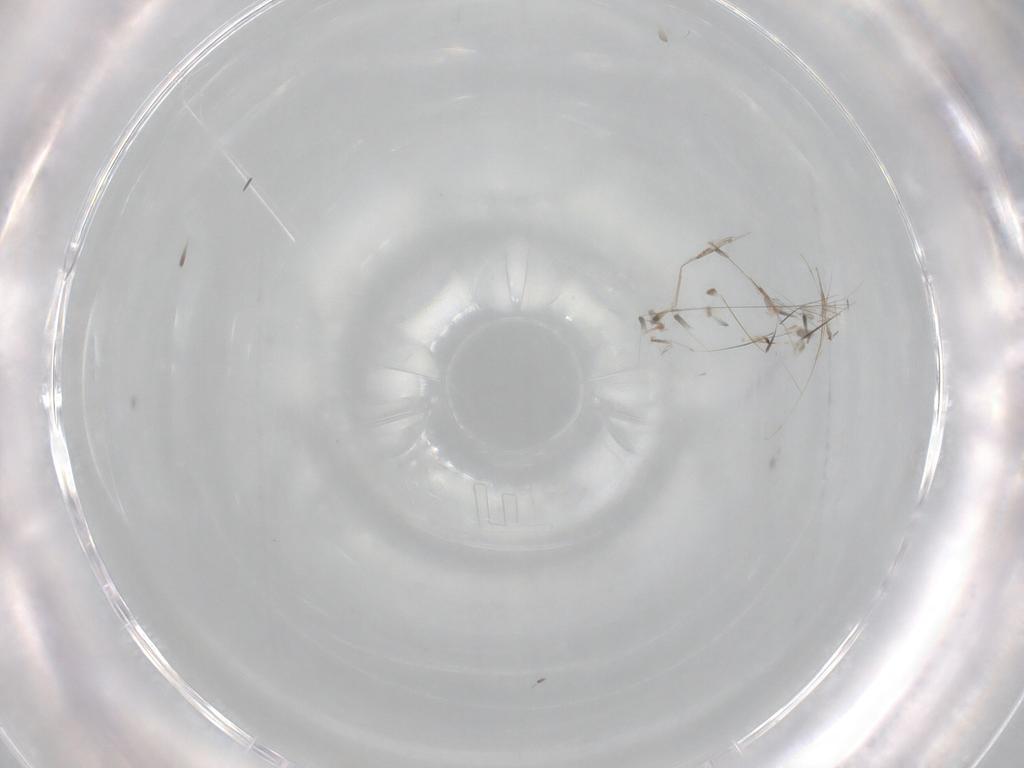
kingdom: Animalia
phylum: Arthropoda
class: Insecta
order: Diptera
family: Cecidomyiidae
